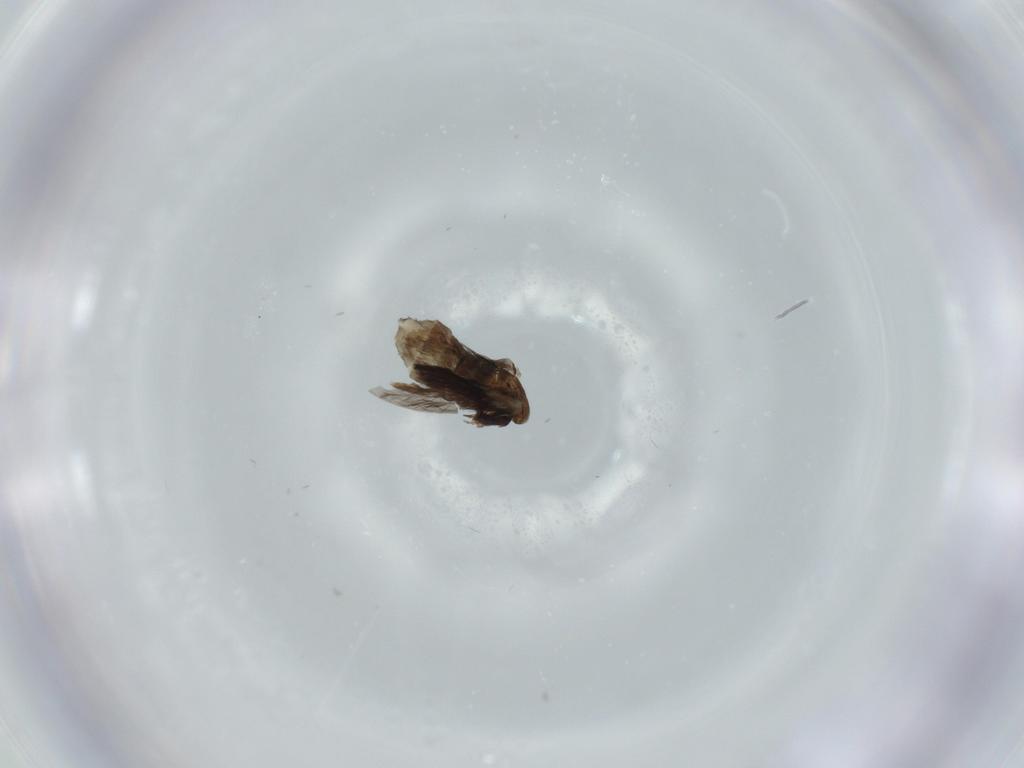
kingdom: Animalia
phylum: Arthropoda
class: Insecta
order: Diptera
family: Psychodidae
